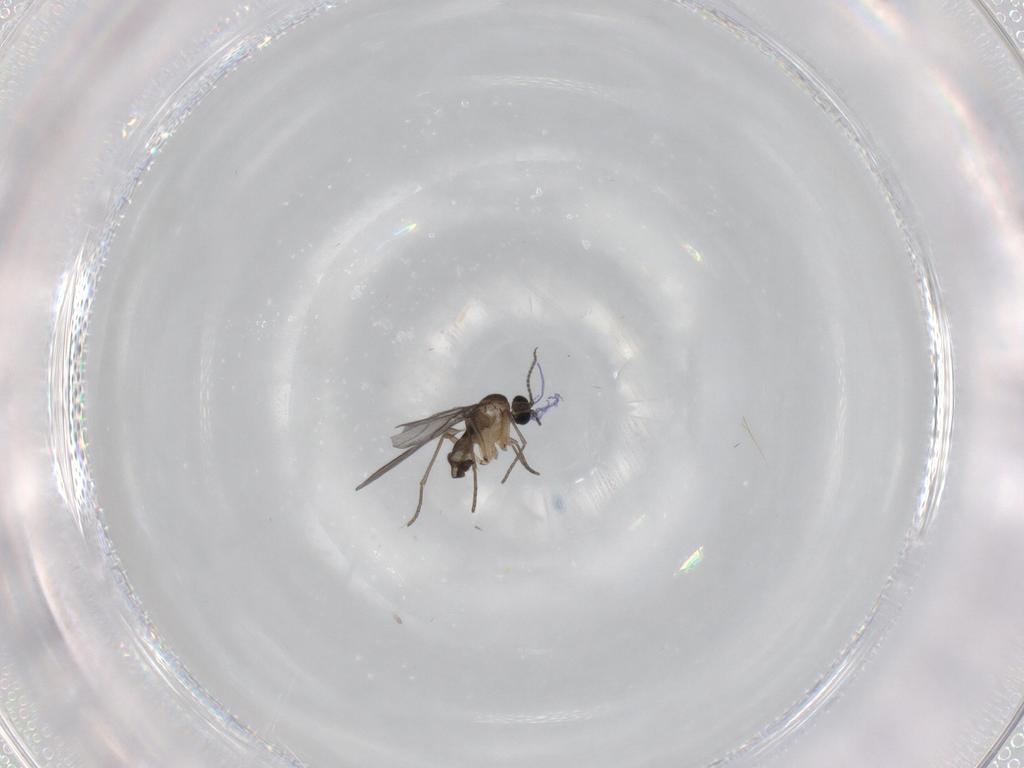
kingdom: Animalia
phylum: Arthropoda
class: Insecta
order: Diptera
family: Sciaridae
